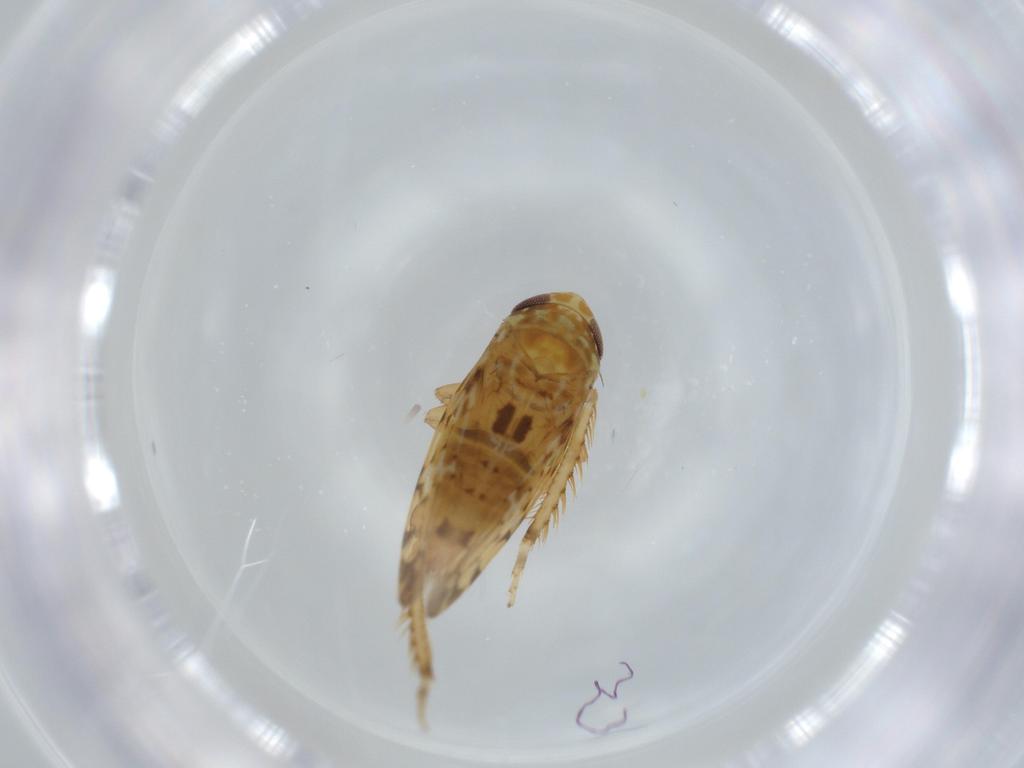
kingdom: Animalia
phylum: Arthropoda
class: Insecta
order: Hemiptera
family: Cicadellidae
